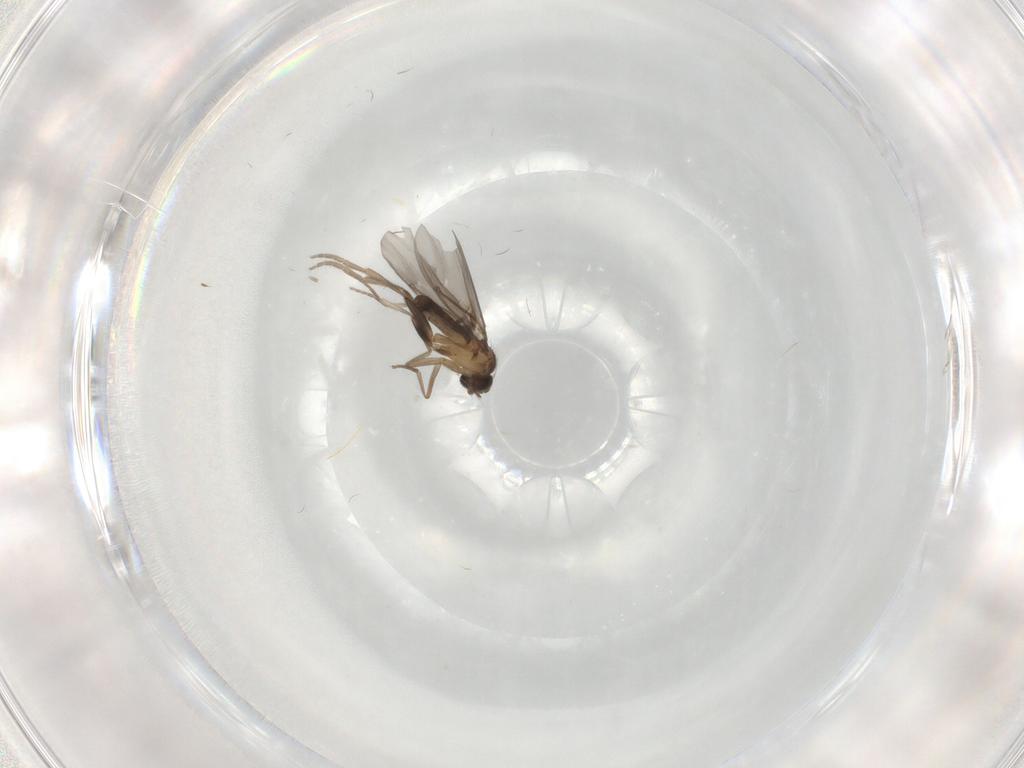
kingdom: Animalia
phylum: Arthropoda
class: Insecta
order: Diptera
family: Phoridae
